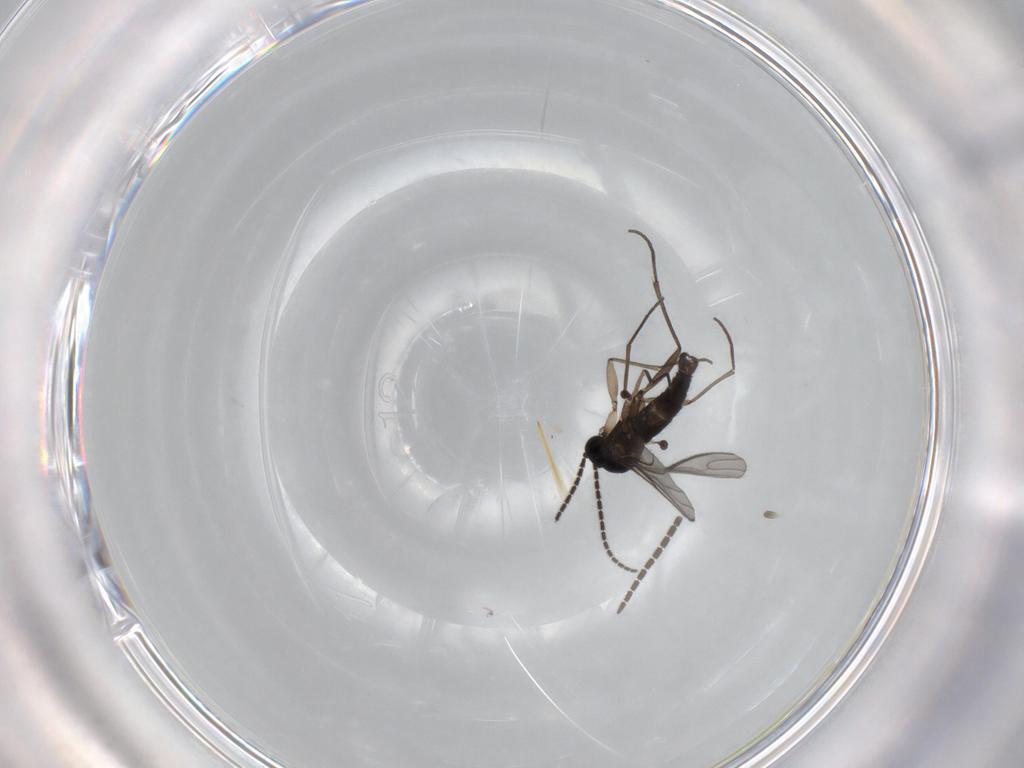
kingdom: Animalia
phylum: Arthropoda
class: Insecta
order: Diptera
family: Sciaridae
